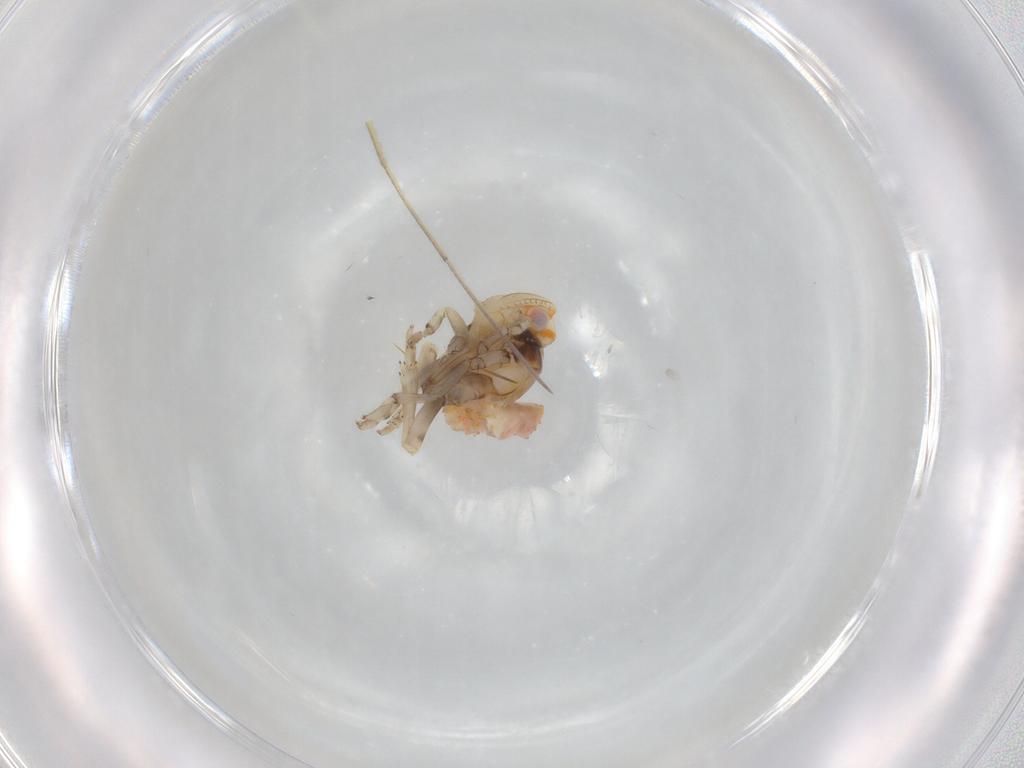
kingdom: Animalia
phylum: Arthropoda
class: Insecta
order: Hemiptera
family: Ricaniidae
